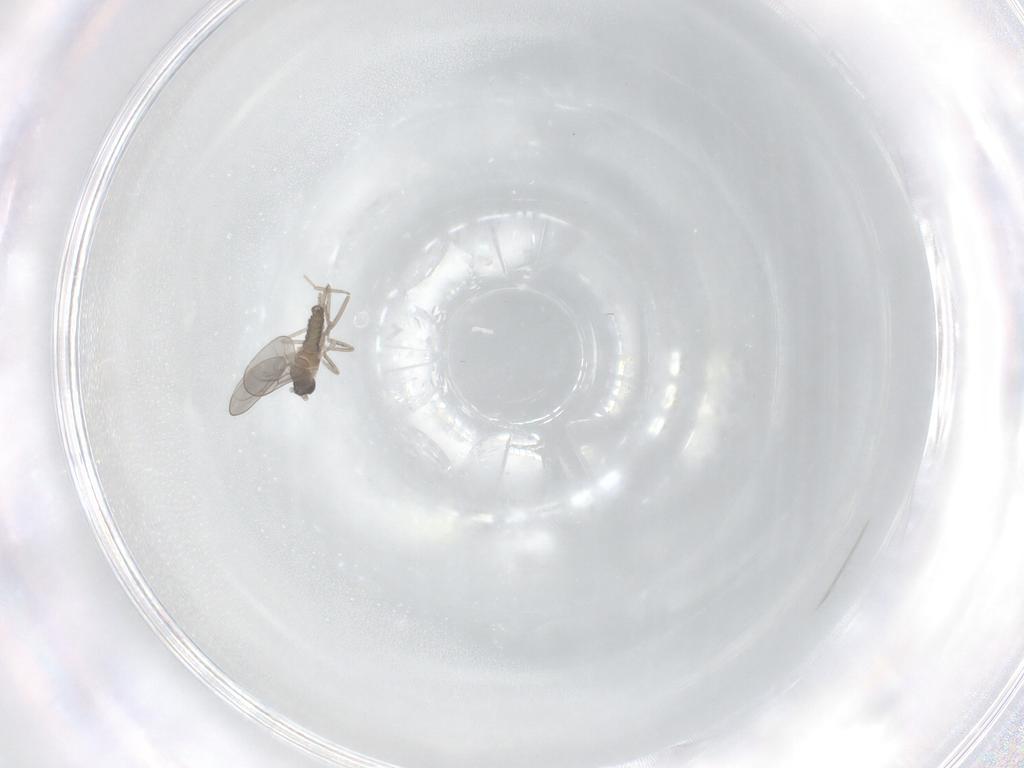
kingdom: Animalia
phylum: Arthropoda
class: Insecta
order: Diptera
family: Cecidomyiidae
